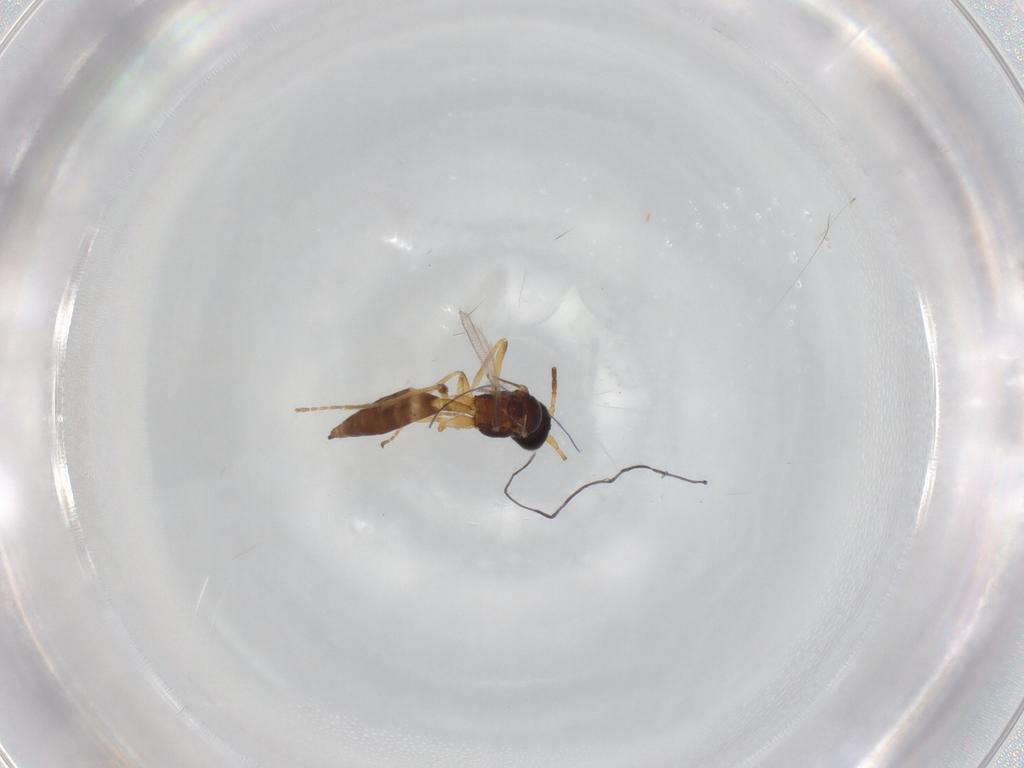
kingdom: Animalia
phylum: Arthropoda
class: Insecta
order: Hymenoptera
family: Braconidae
